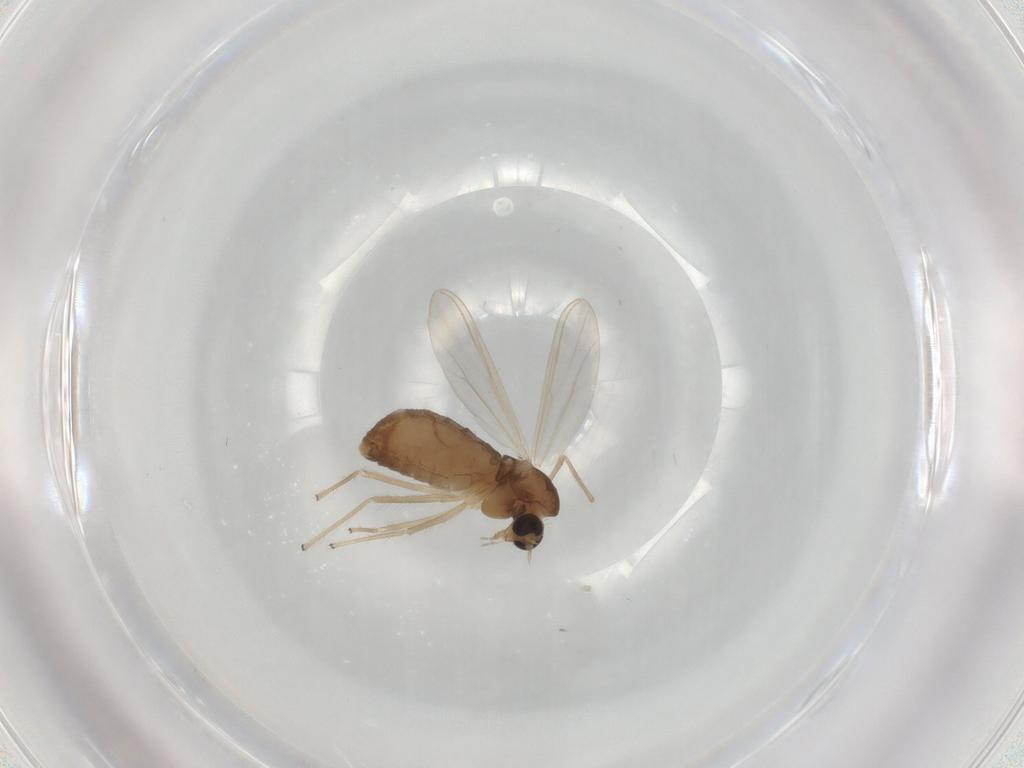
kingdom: Animalia
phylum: Arthropoda
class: Insecta
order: Diptera
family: Chironomidae
